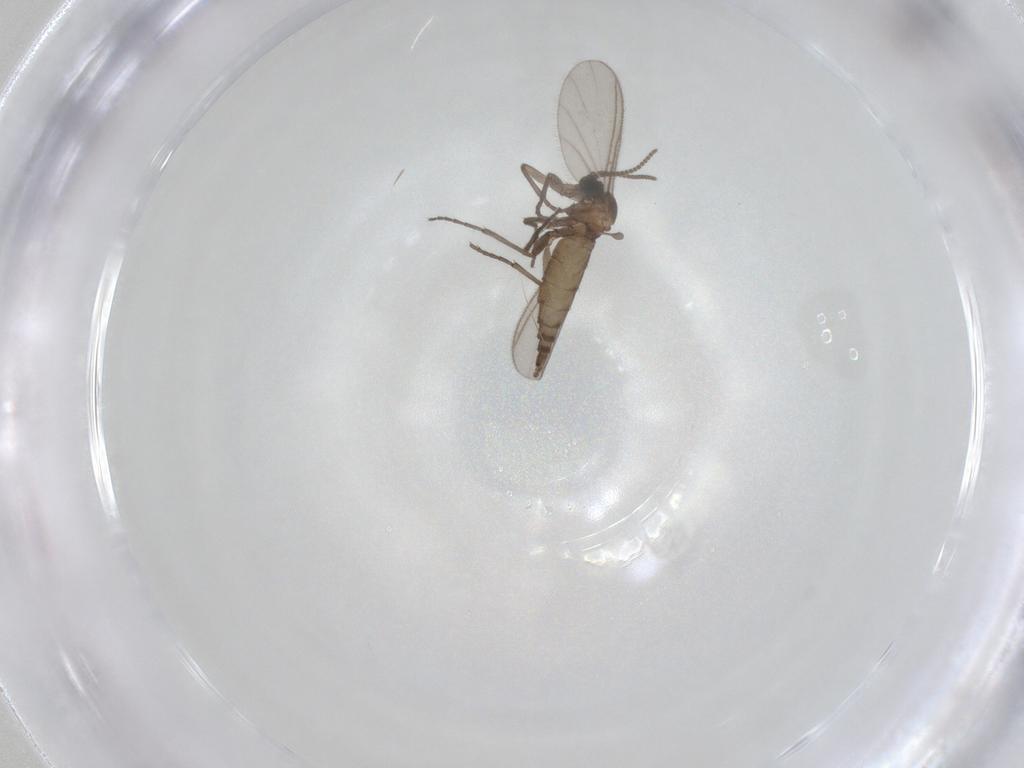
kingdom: Animalia
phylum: Arthropoda
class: Insecta
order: Diptera
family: Sciaridae
